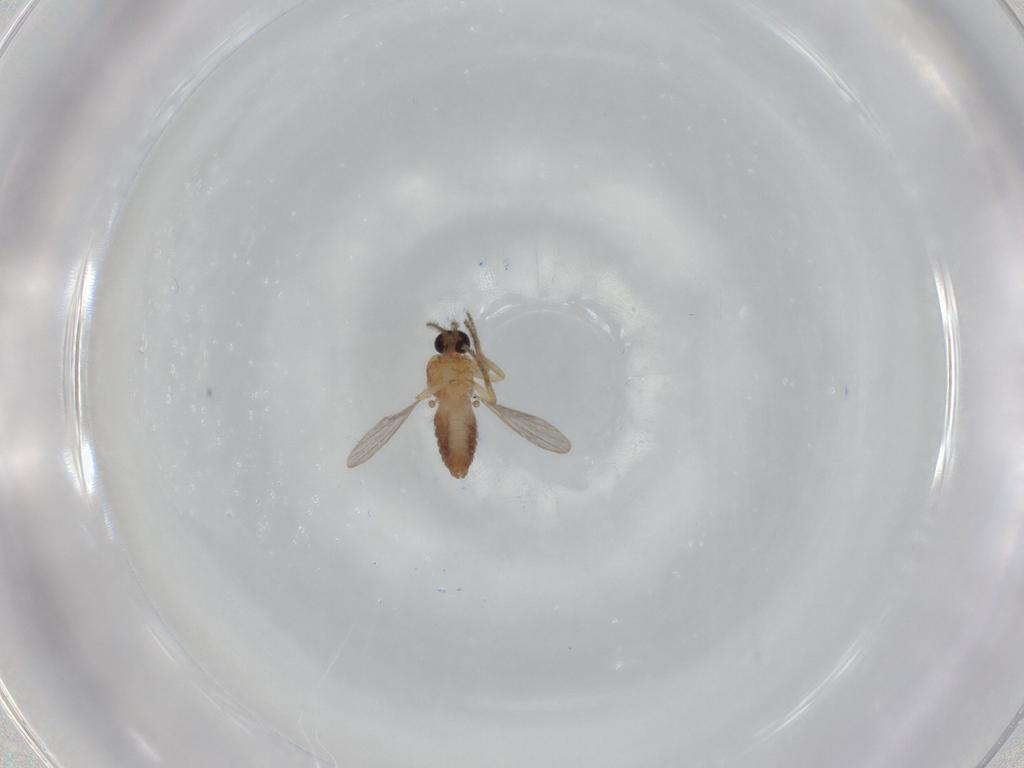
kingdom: Animalia
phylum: Arthropoda
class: Insecta
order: Diptera
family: Ceratopogonidae
